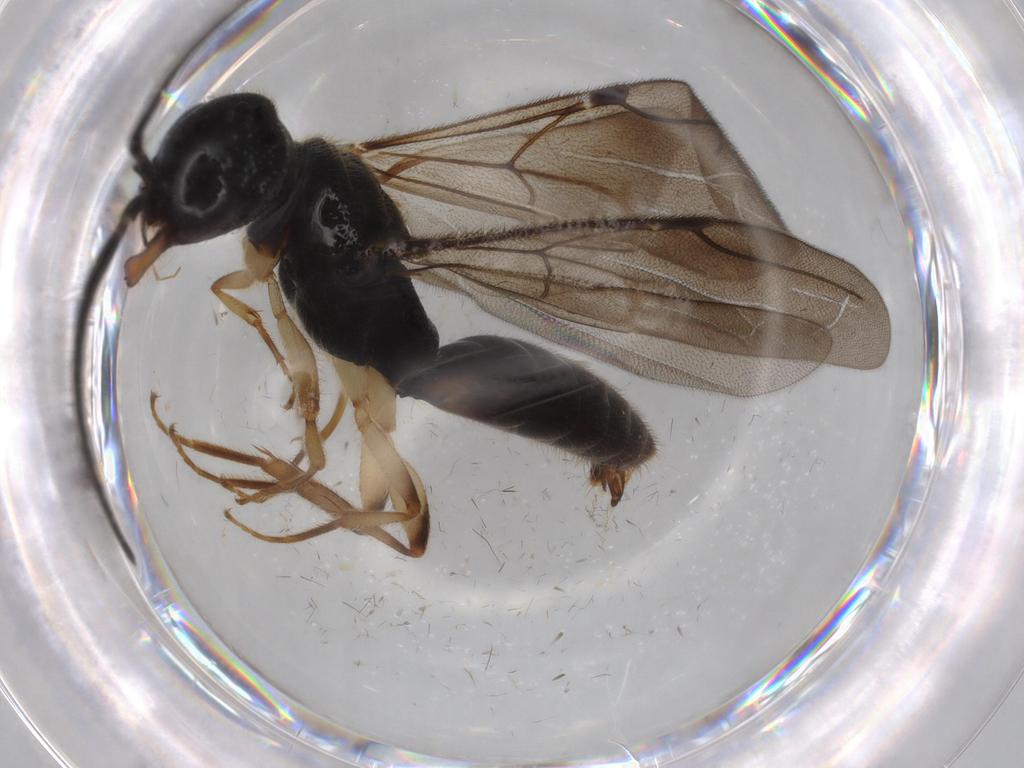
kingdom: Animalia
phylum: Arthropoda
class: Insecta
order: Hymenoptera
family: Bethylidae
